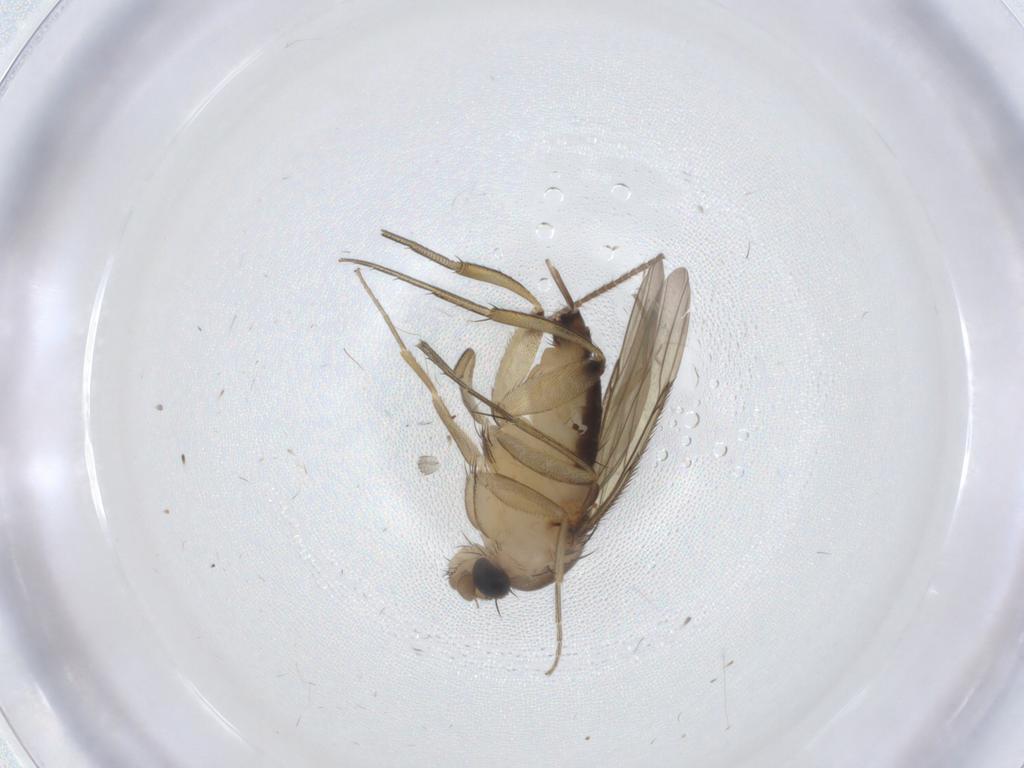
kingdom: Animalia
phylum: Arthropoda
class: Insecta
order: Diptera
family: Phoridae
